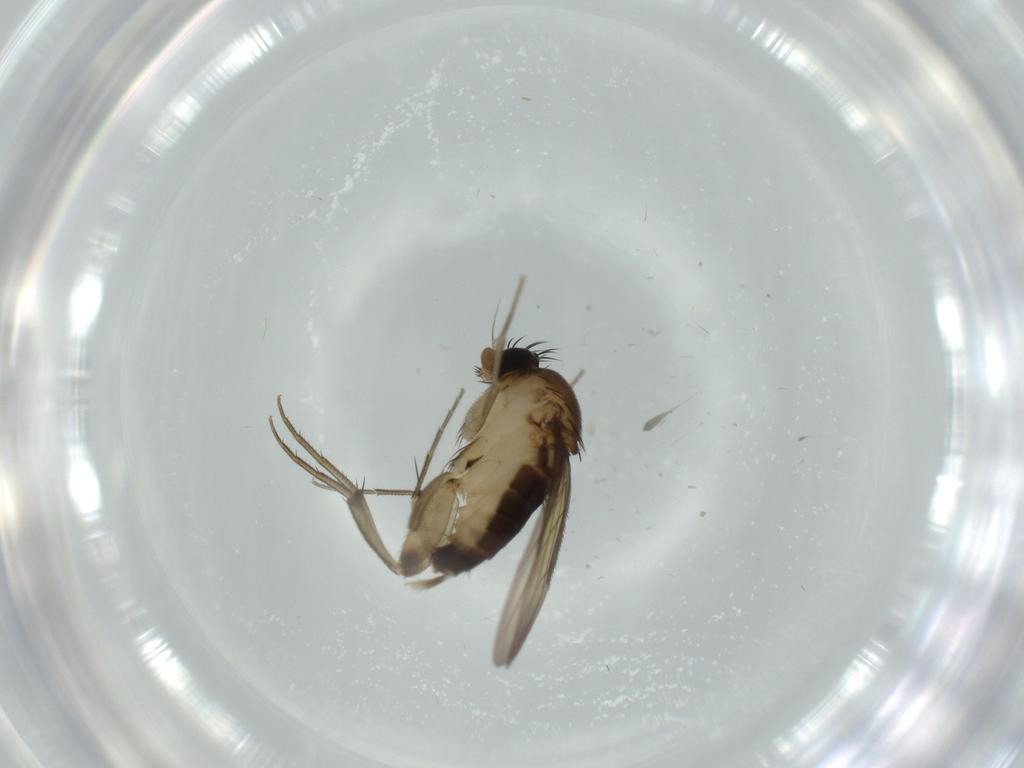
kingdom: Animalia
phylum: Arthropoda
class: Insecta
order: Diptera
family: Phoridae
